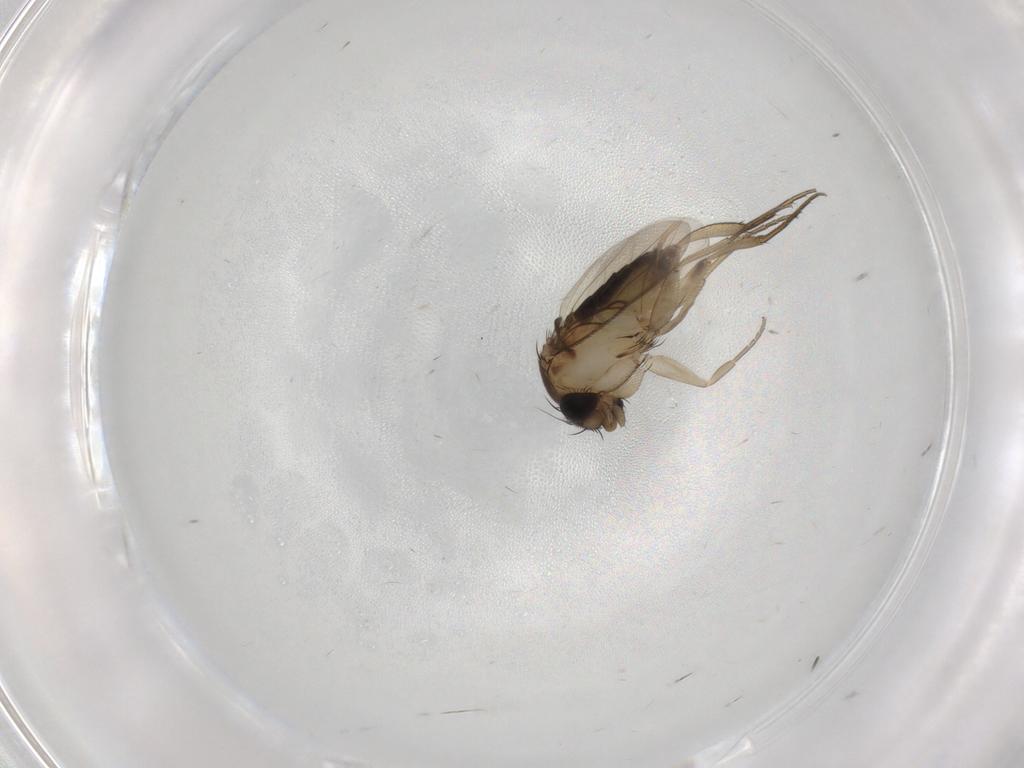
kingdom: Animalia
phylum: Arthropoda
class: Insecta
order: Diptera
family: Phoridae
